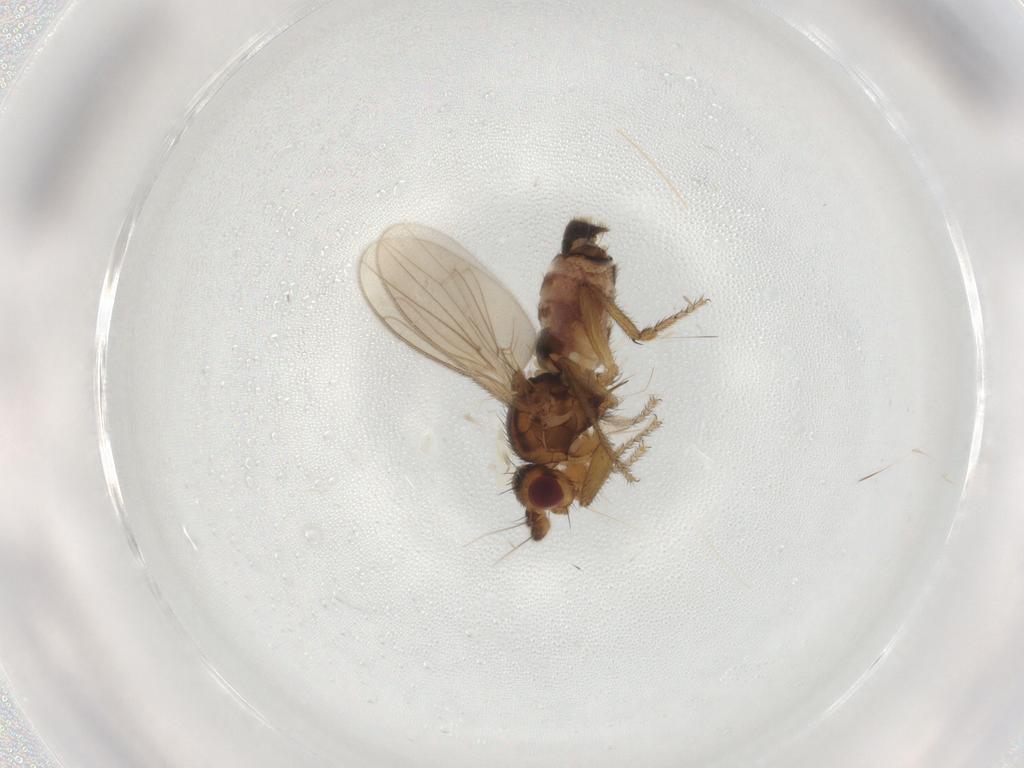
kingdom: Animalia
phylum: Arthropoda
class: Insecta
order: Diptera
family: Sphaeroceridae
